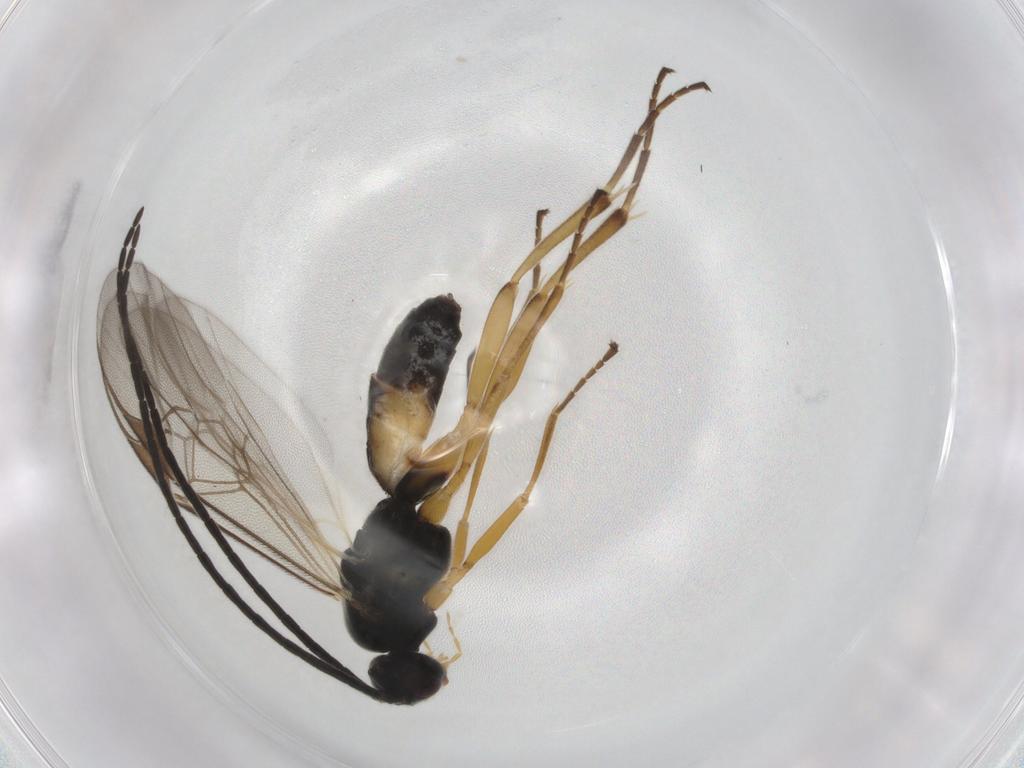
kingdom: Animalia
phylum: Arthropoda
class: Insecta
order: Hymenoptera
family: Braconidae
